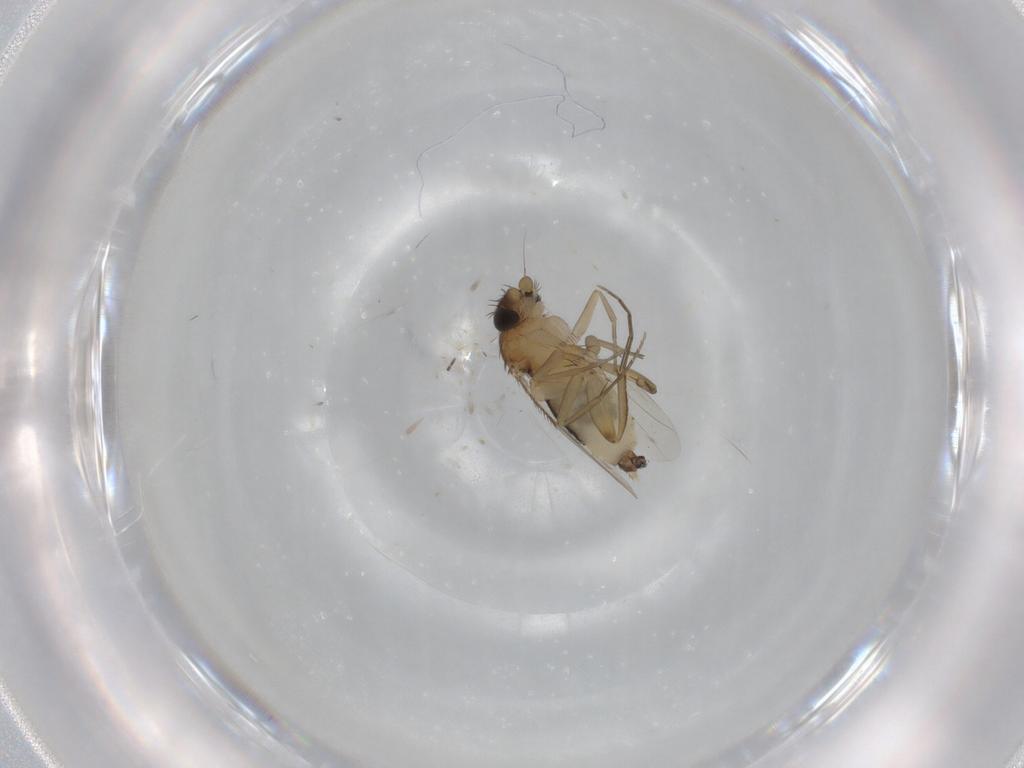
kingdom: Animalia
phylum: Arthropoda
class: Insecta
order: Diptera
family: Phoridae
